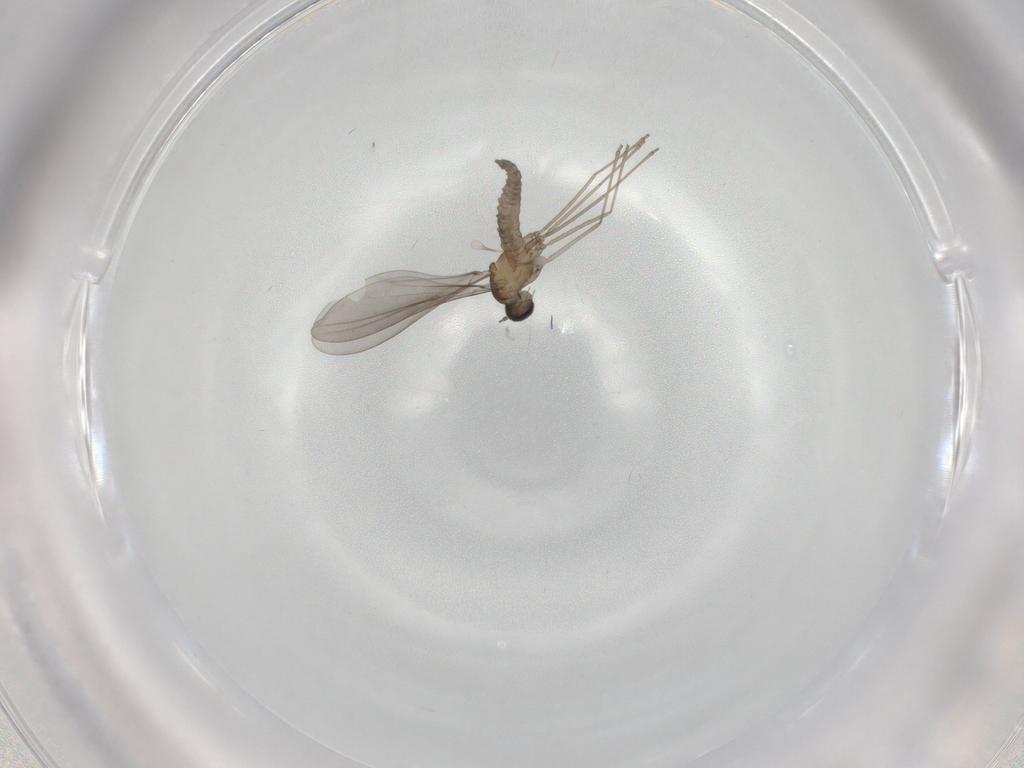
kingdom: Animalia
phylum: Arthropoda
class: Insecta
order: Diptera
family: Cecidomyiidae
